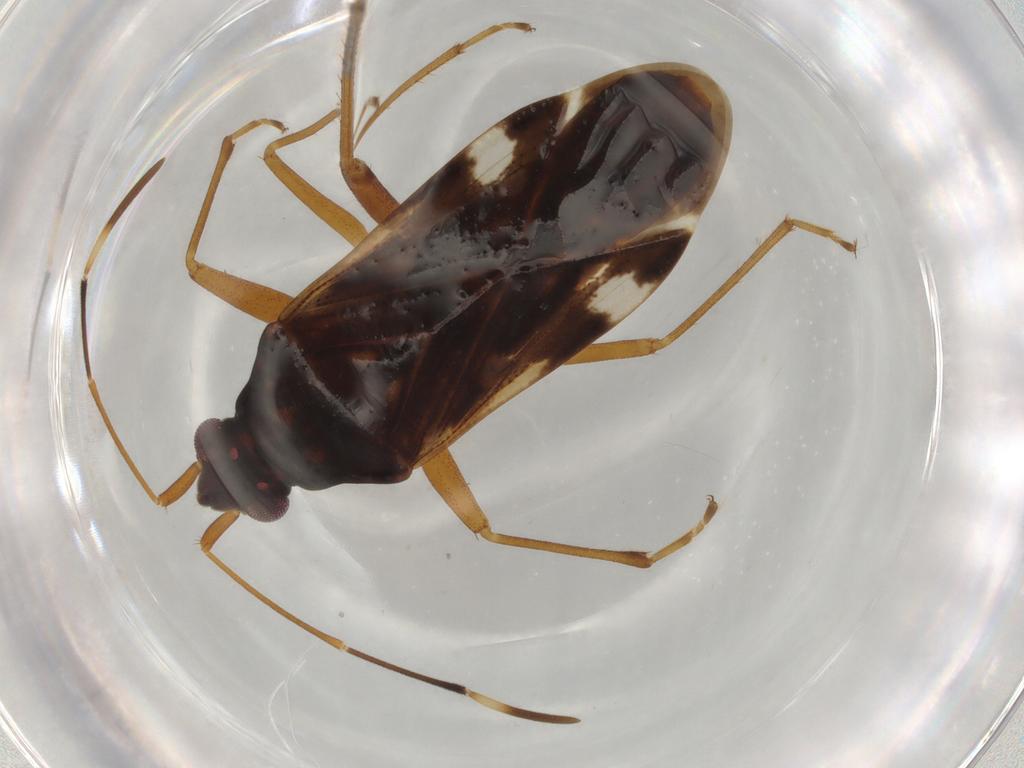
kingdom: Animalia
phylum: Arthropoda
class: Insecta
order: Hemiptera
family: Rhyparochromidae
